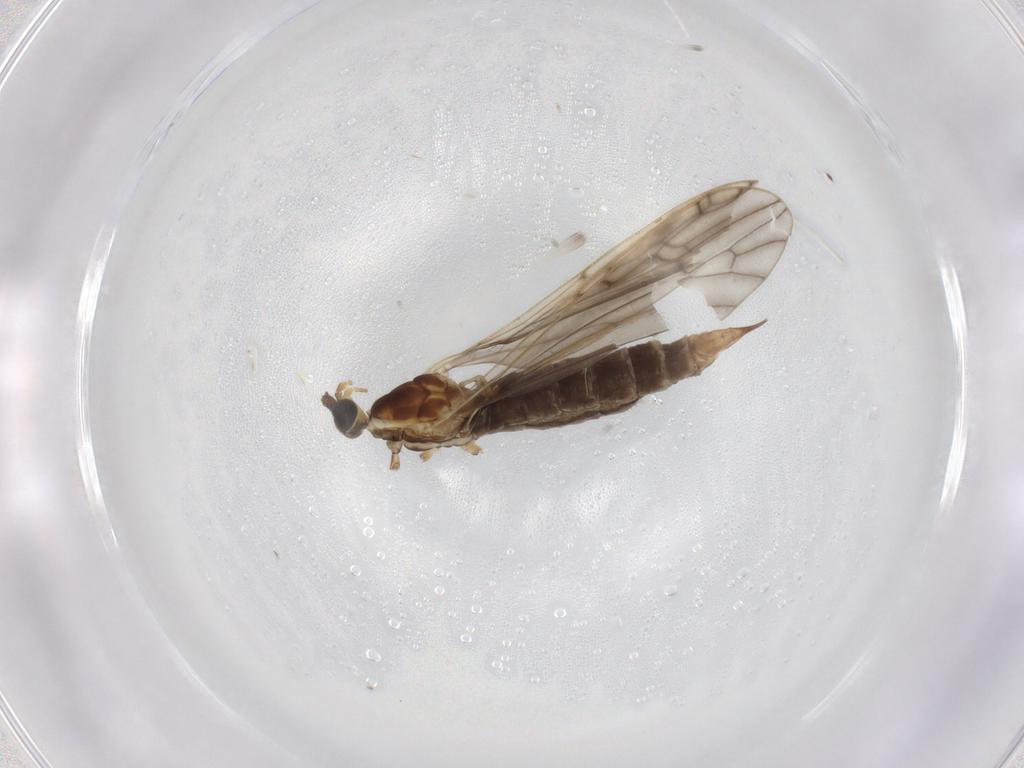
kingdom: Animalia
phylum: Arthropoda
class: Insecta
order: Diptera
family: Limoniidae
